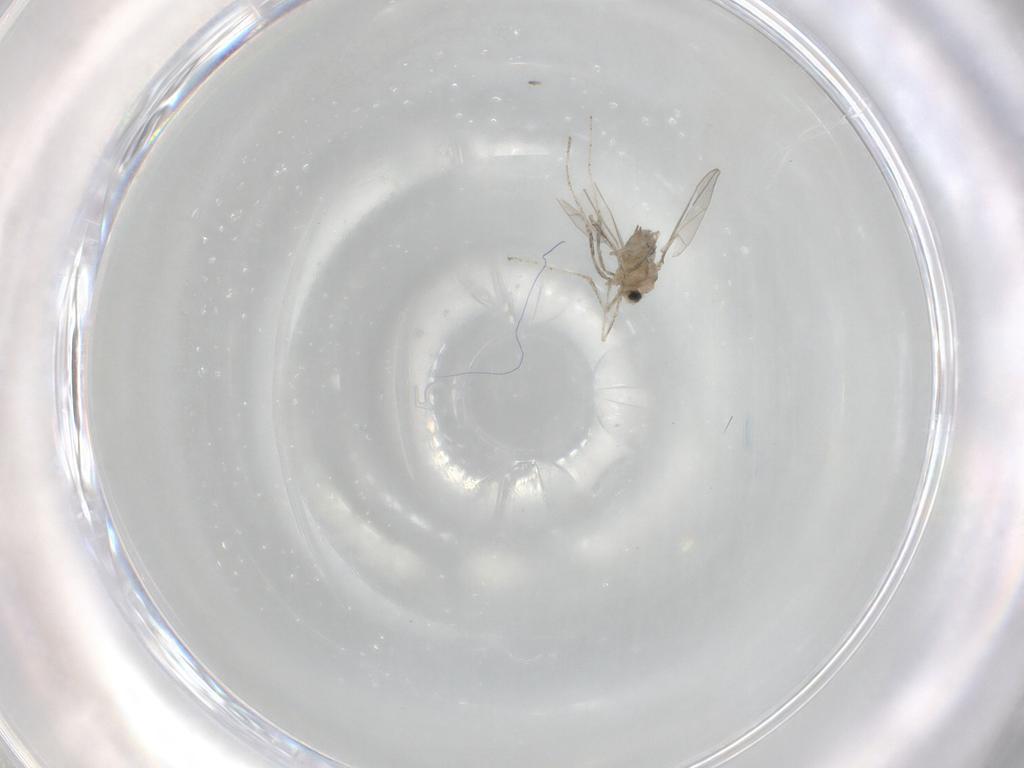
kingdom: Animalia
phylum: Arthropoda
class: Insecta
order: Diptera
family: Cecidomyiidae
